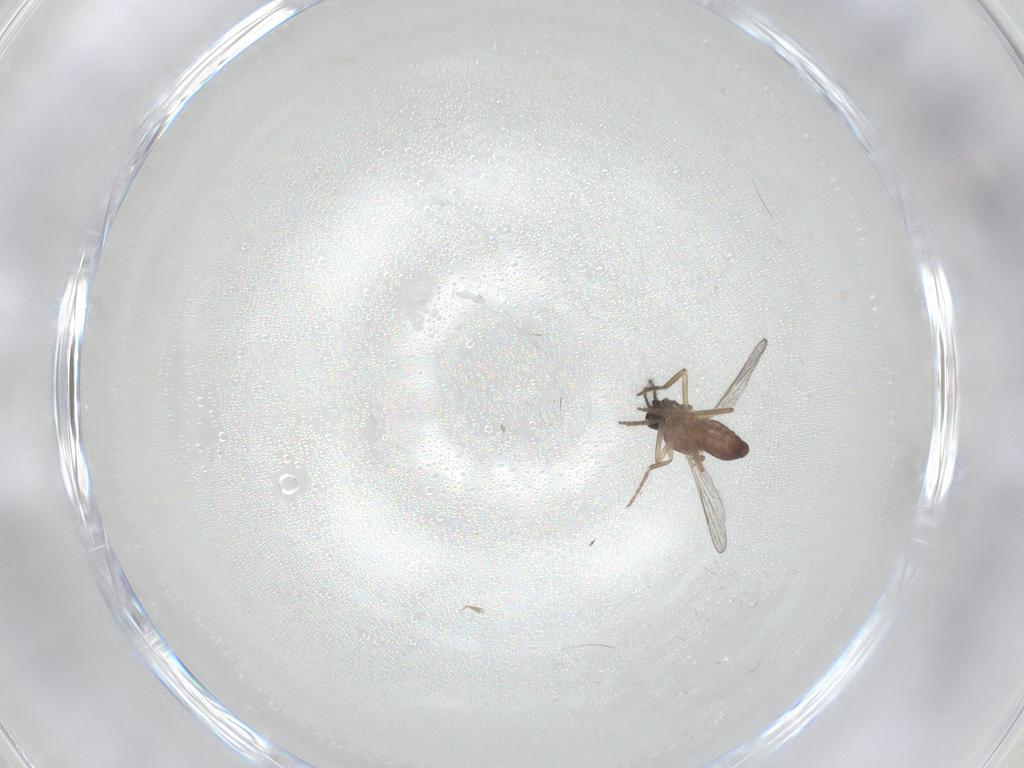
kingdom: Animalia
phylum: Arthropoda
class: Insecta
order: Diptera
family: Ceratopogonidae
